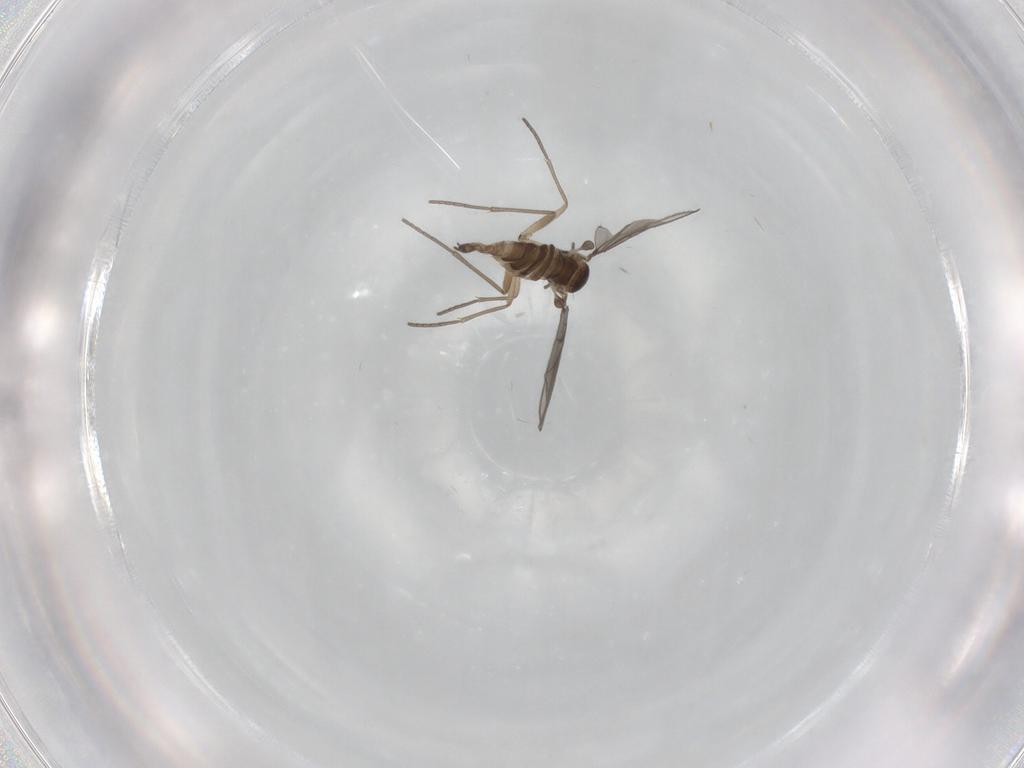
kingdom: Animalia
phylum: Arthropoda
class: Insecta
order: Diptera
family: Sciaridae
